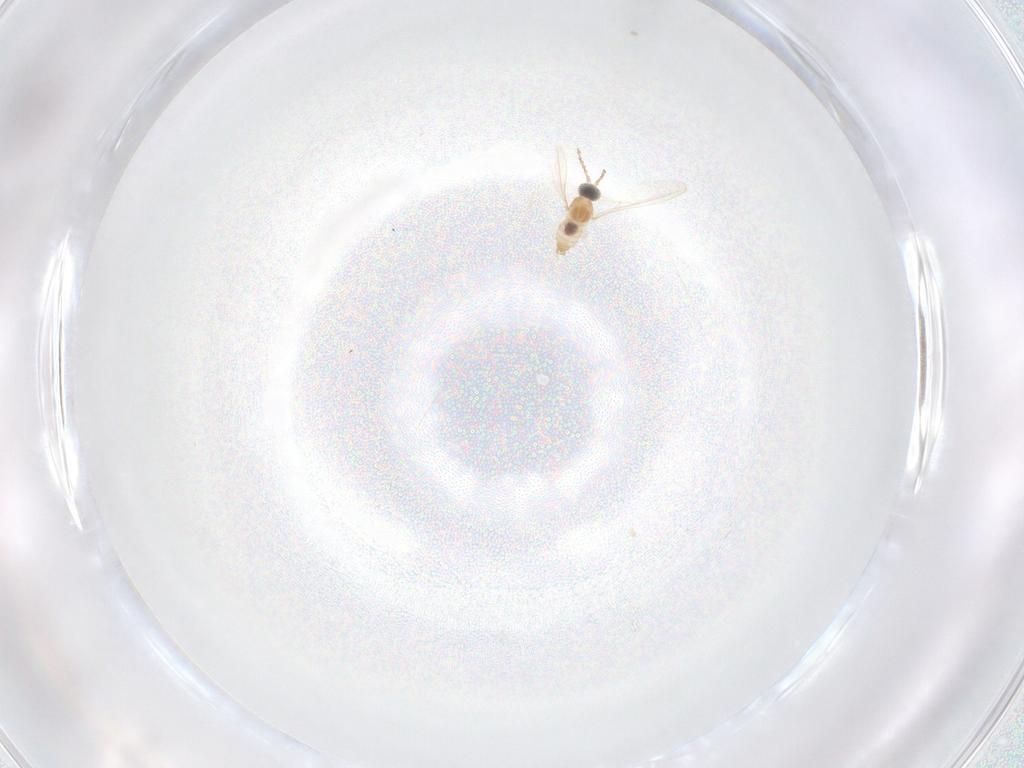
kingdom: Animalia
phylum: Arthropoda
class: Insecta
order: Diptera
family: Cecidomyiidae
